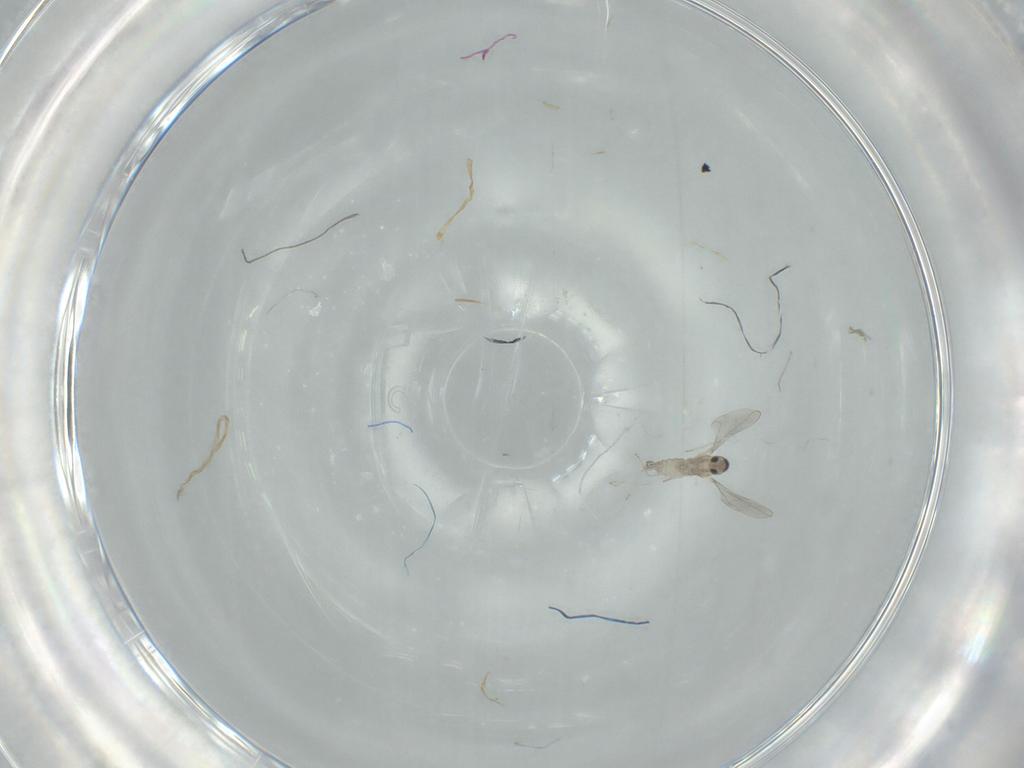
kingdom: Animalia
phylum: Arthropoda
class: Insecta
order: Diptera
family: Cecidomyiidae
